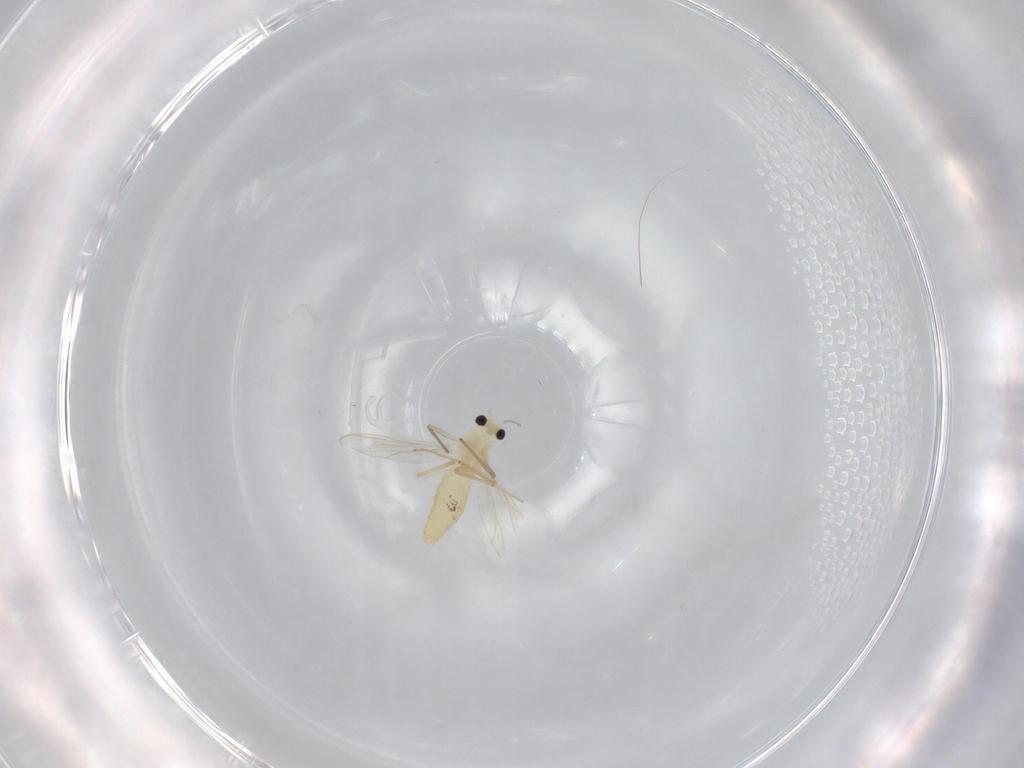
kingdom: Animalia
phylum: Arthropoda
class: Insecta
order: Diptera
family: Chironomidae
